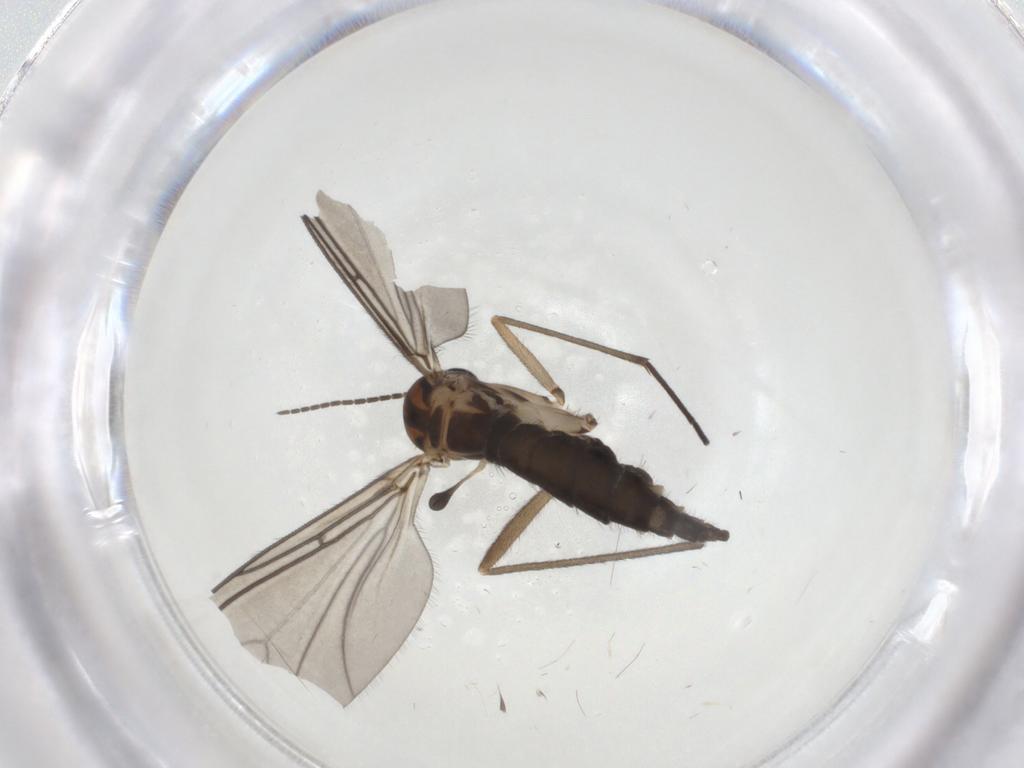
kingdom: Animalia
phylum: Arthropoda
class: Insecta
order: Diptera
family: Sciaridae
